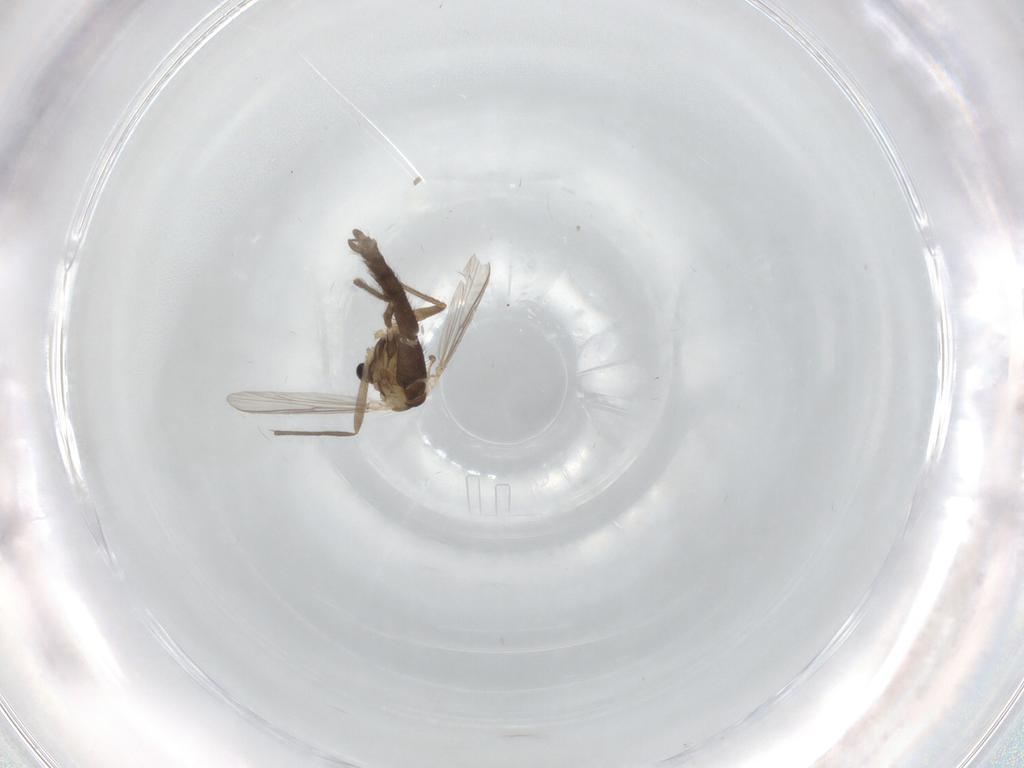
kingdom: Animalia
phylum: Arthropoda
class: Insecta
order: Diptera
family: Chironomidae
